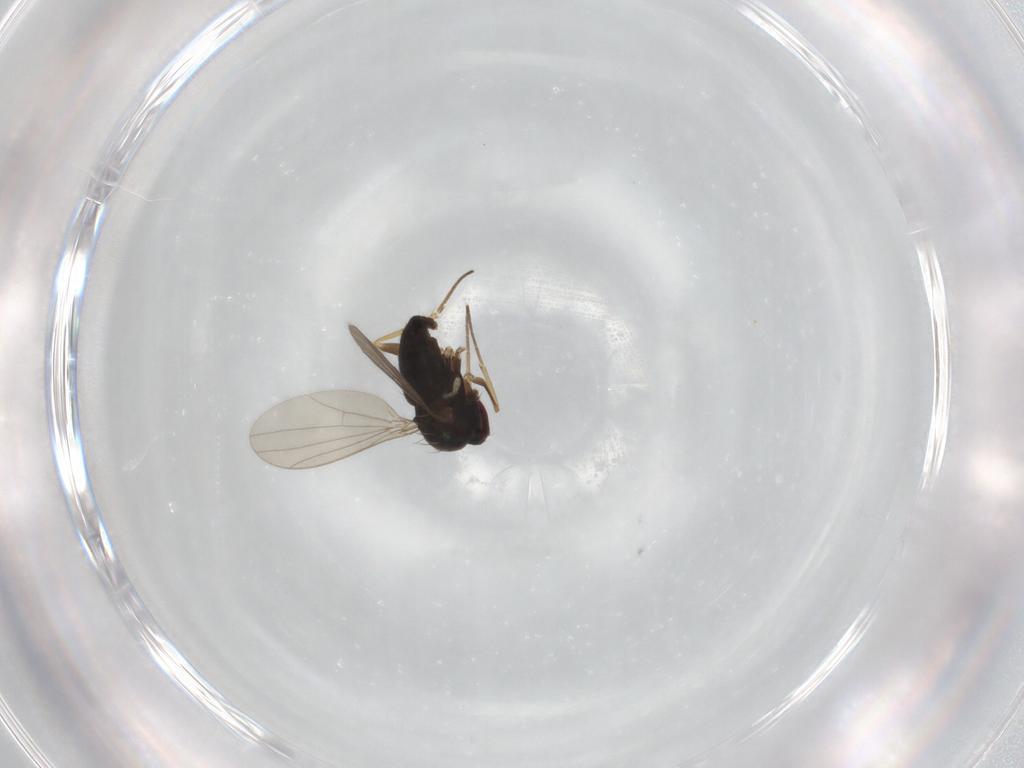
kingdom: Animalia
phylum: Arthropoda
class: Insecta
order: Diptera
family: Dolichopodidae
